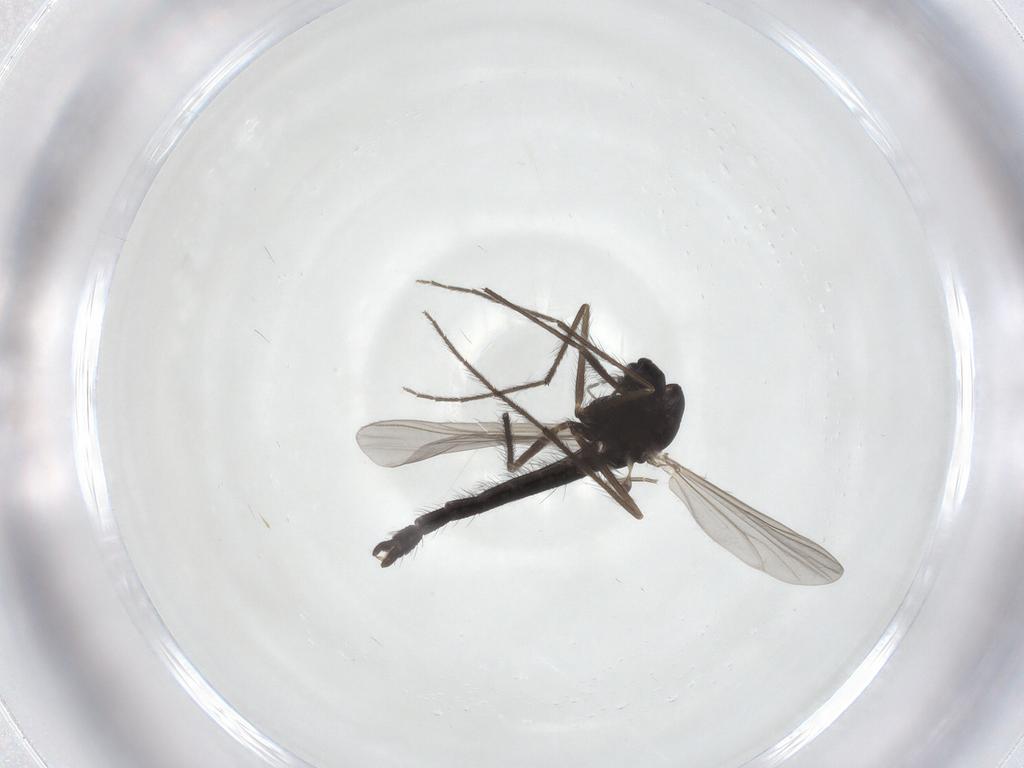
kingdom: Animalia
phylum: Arthropoda
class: Insecta
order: Diptera
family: Chironomidae
